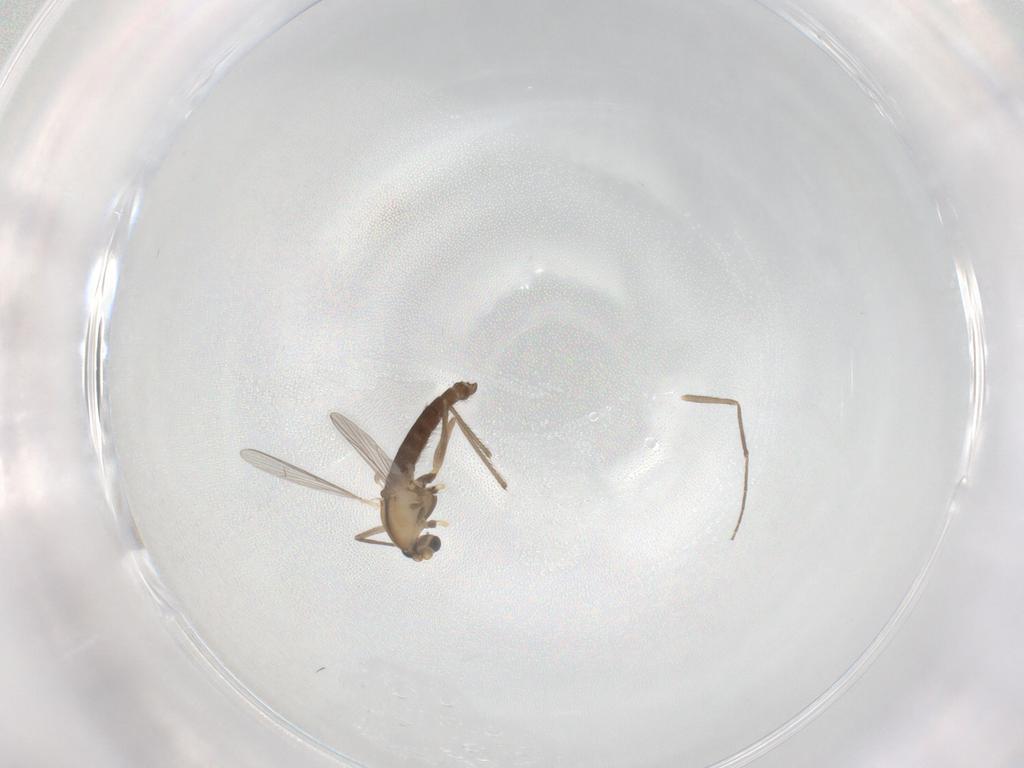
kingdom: Animalia
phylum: Arthropoda
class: Insecta
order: Diptera
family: Chironomidae
